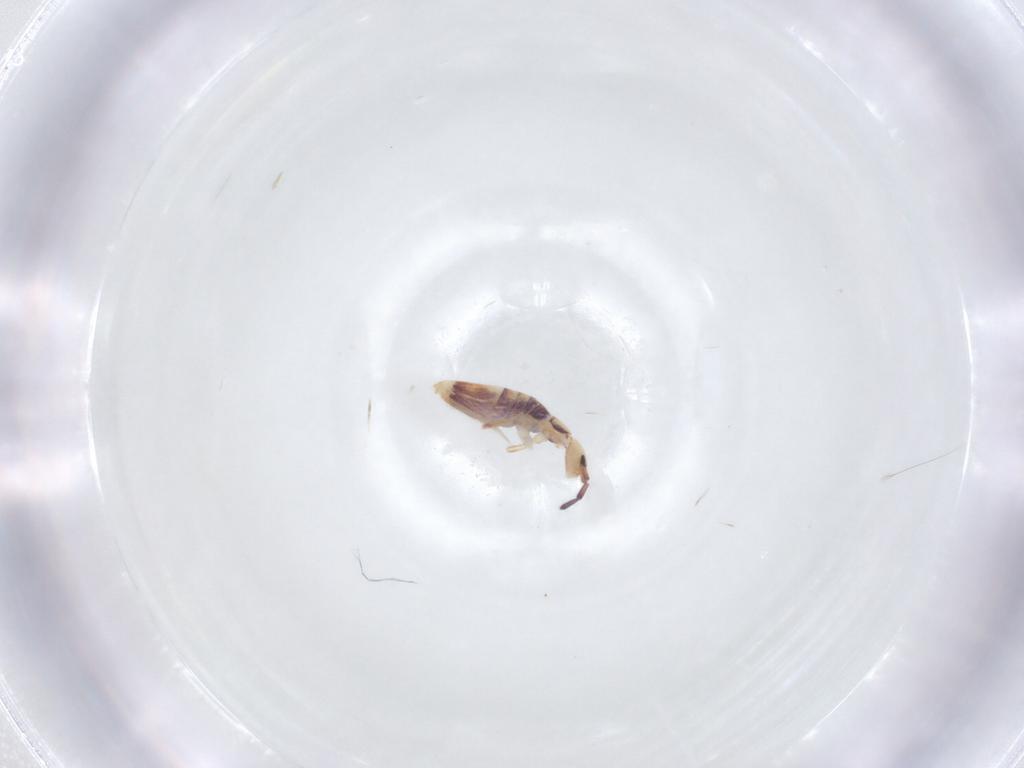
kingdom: Animalia
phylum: Arthropoda
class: Collembola
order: Entomobryomorpha
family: Entomobryidae
